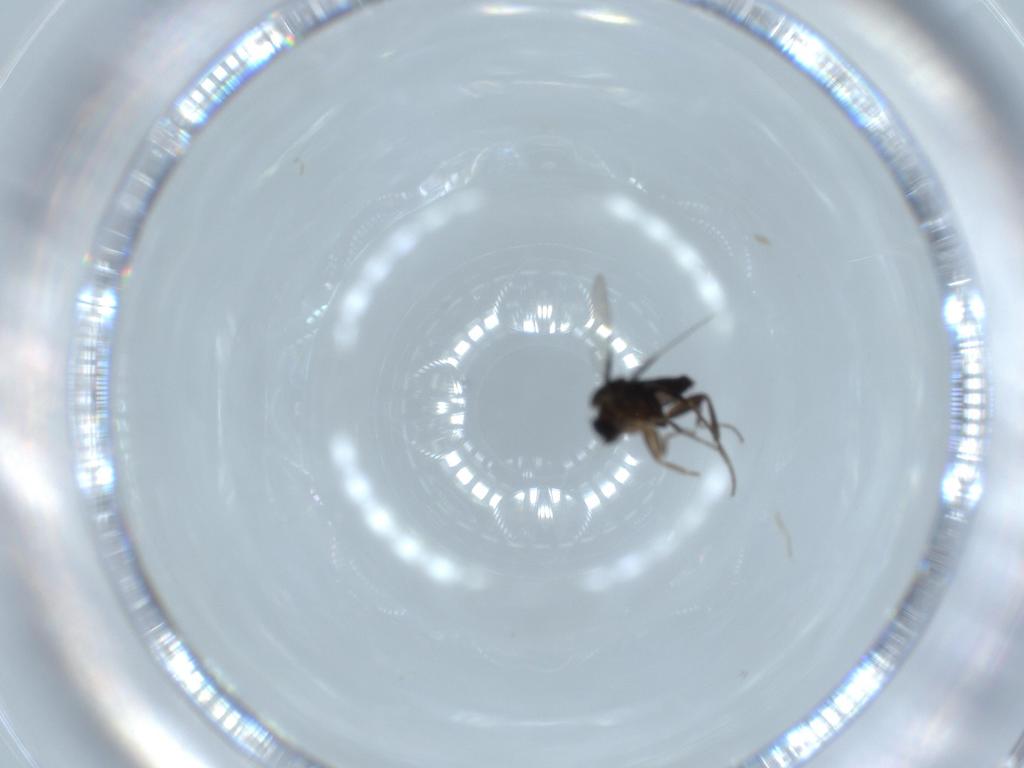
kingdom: Animalia
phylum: Arthropoda
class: Insecta
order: Diptera
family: Phoridae
